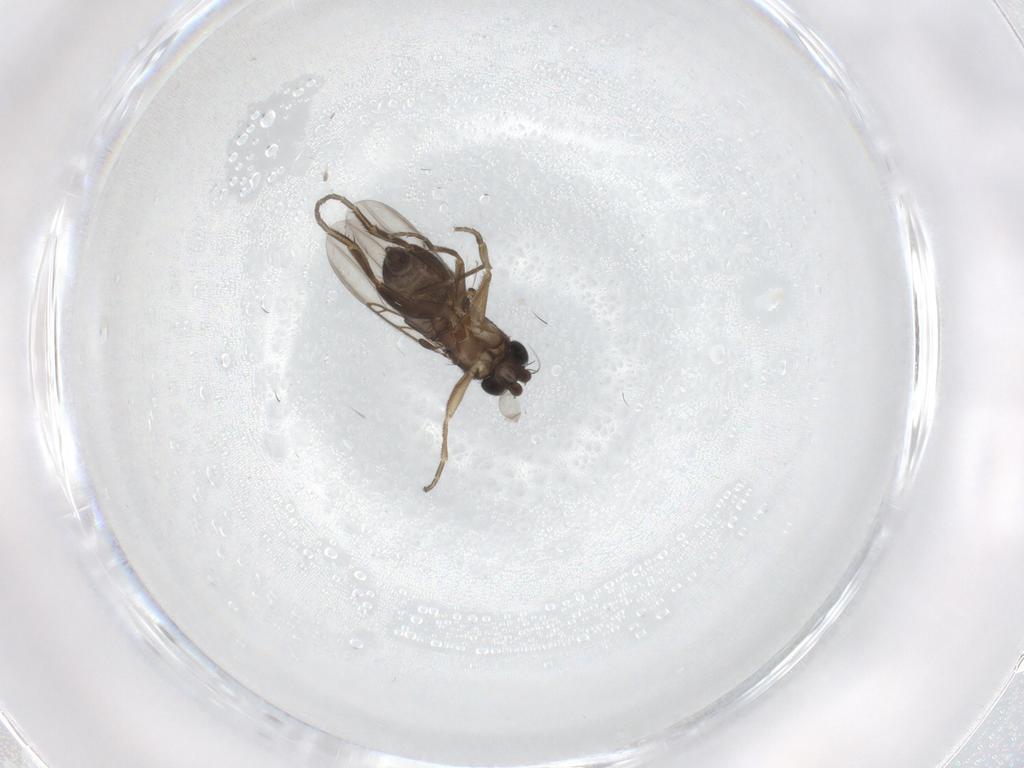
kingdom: Animalia
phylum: Arthropoda
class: Insecta
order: Diptera
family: Phoridae
